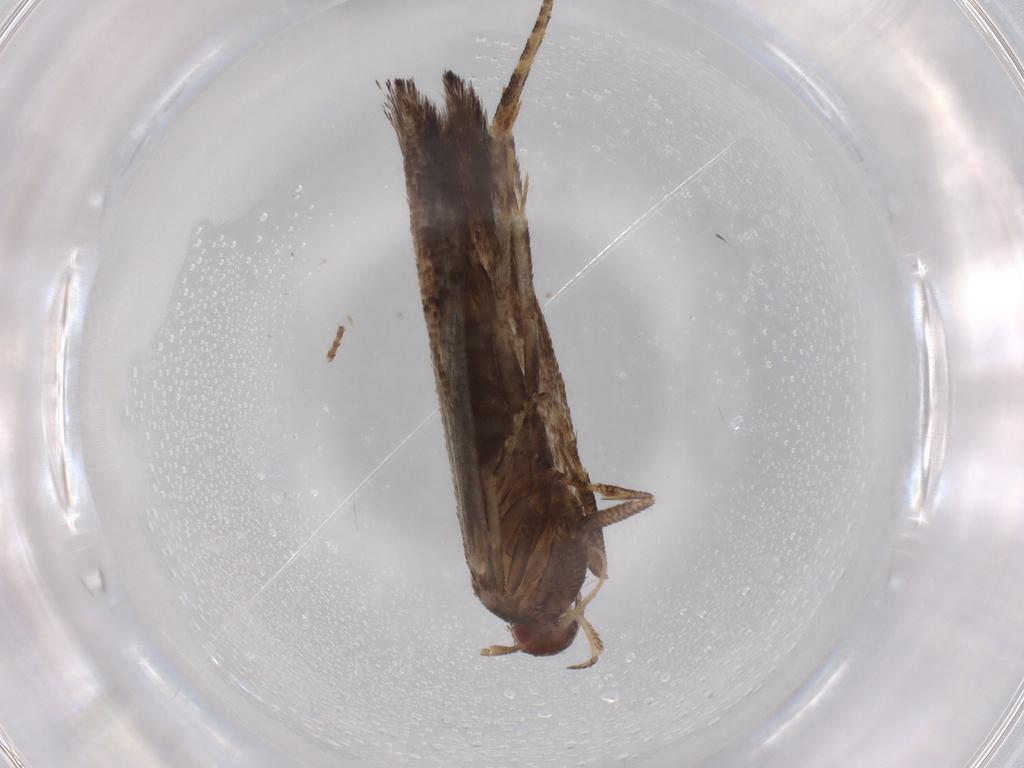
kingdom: Animalia
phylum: Arthropoda
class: Insecta
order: Lepidoptera
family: Momphidae
